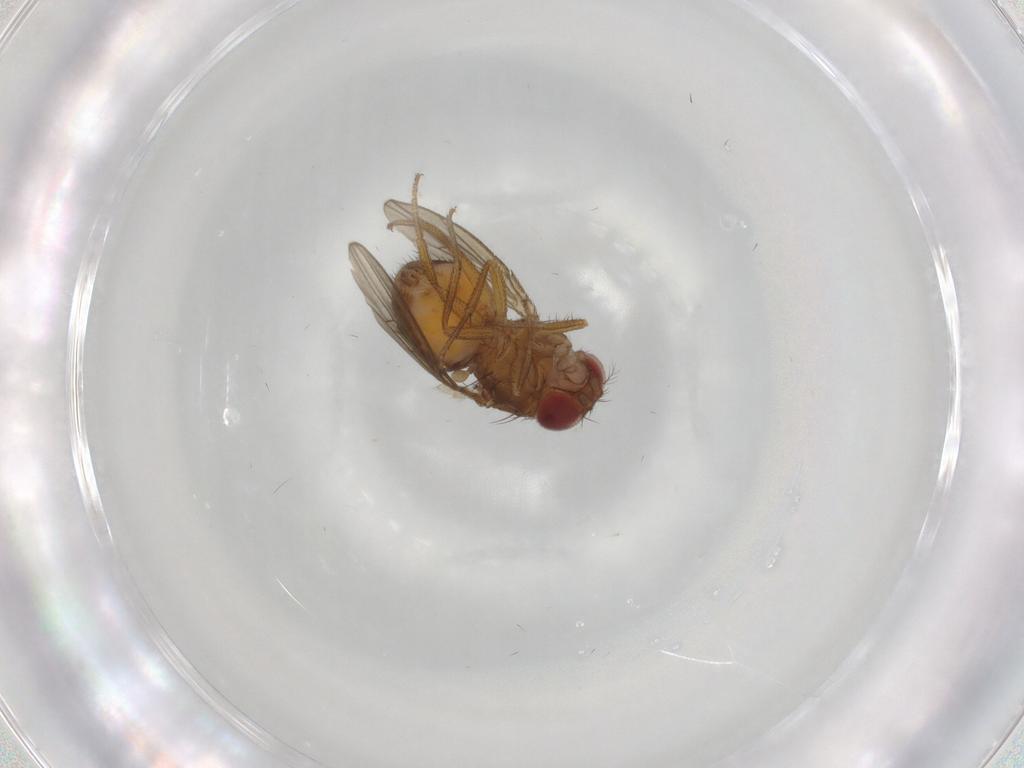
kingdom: Animalia
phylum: Arthropoda
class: Insecta
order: Diptera
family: Drosophilidae
